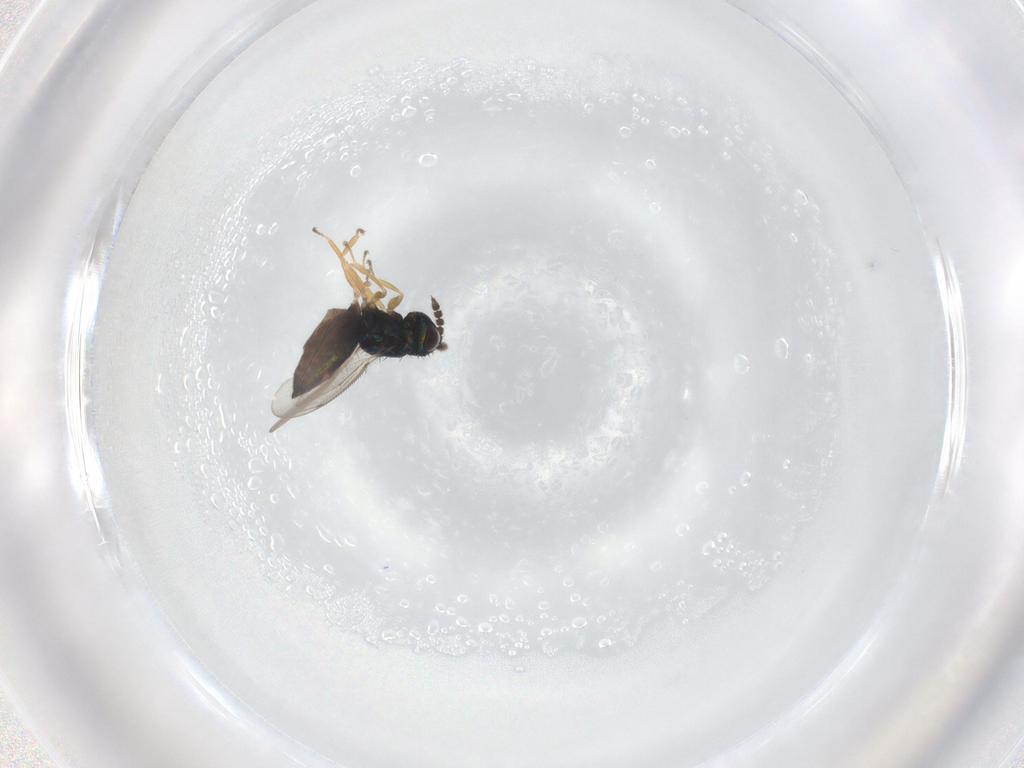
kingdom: Animalia
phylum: Arthropoda
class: Insecta
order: Hymenoptera
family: Eulophidae
